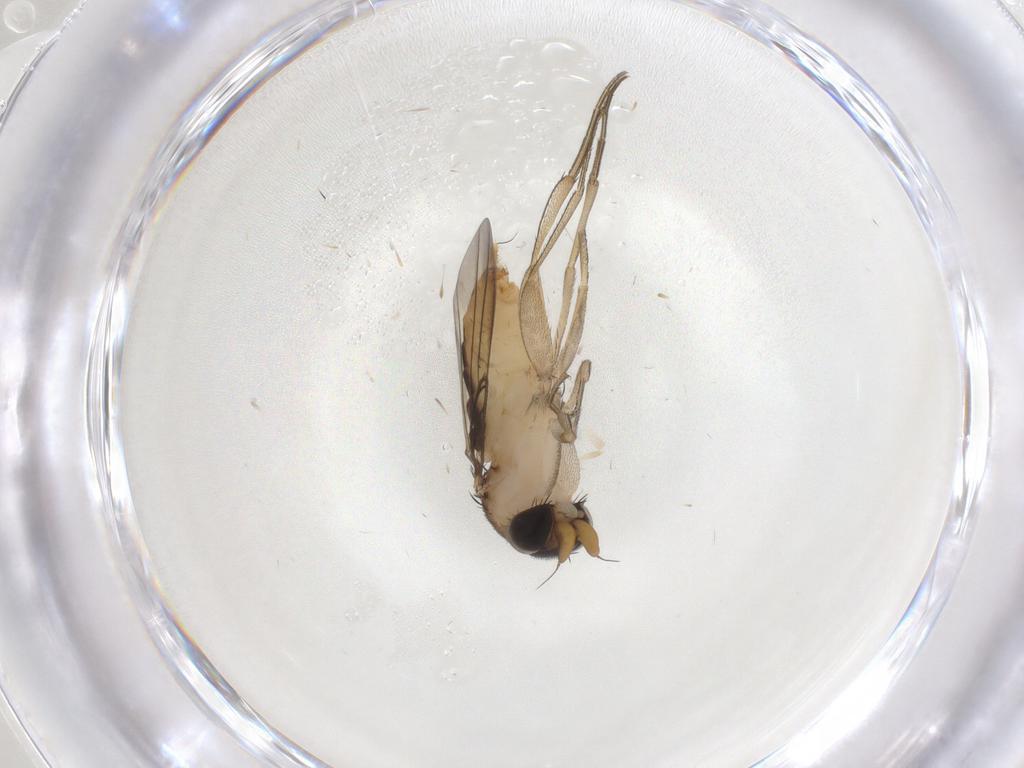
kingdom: Animalia
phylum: Arthropoda
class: Insecta
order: Diptera
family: Phoridae
